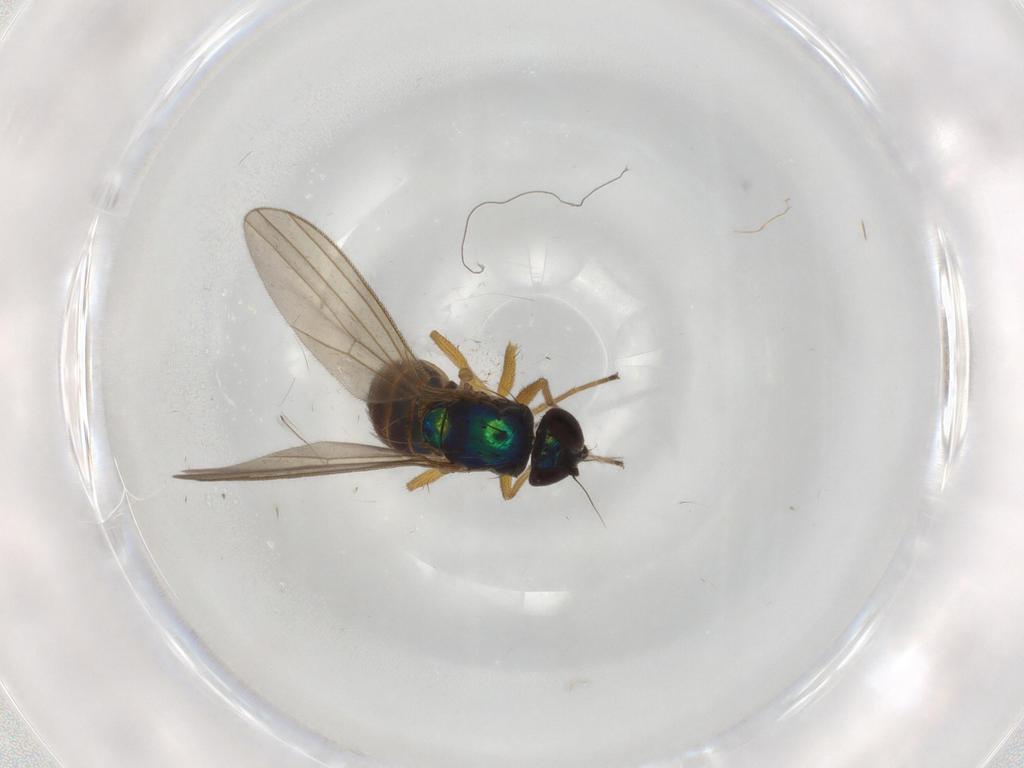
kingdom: Animalia
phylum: Arthropoda
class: Insecta
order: Diptera
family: Dolichopodidae
